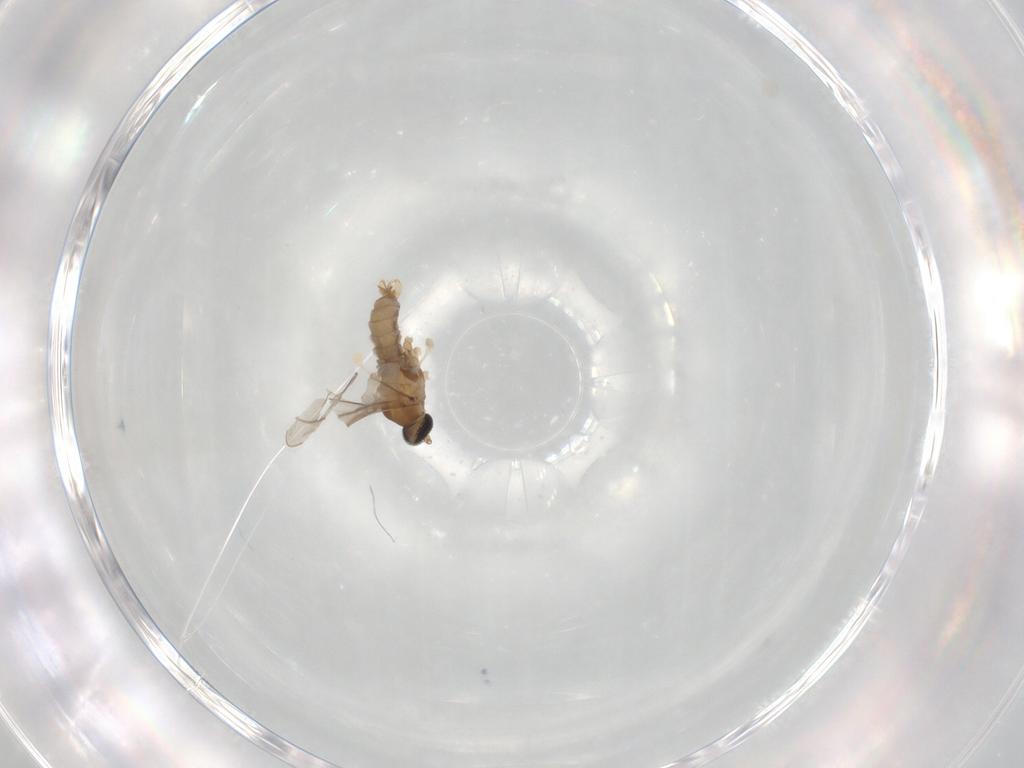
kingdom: Animalia
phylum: Arthropoda
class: Insecta
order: Diptera
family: Cecidomyiidae
